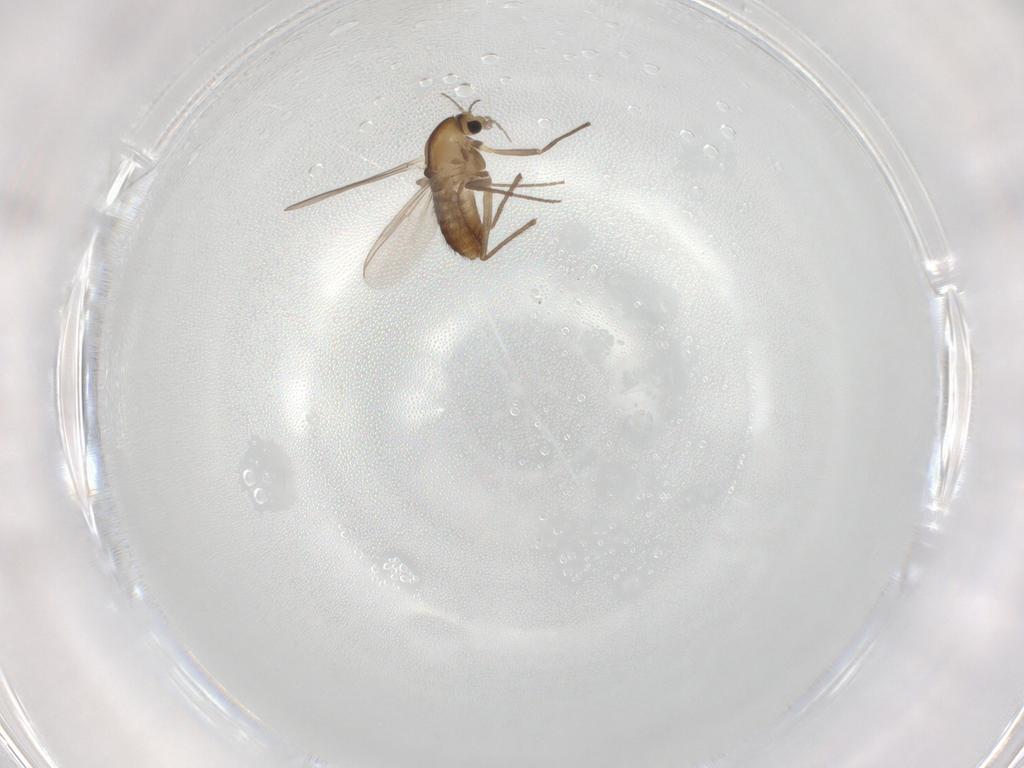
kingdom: Animalia
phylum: Arthropoda
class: Insecta
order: Diptera
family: Chironomidae
